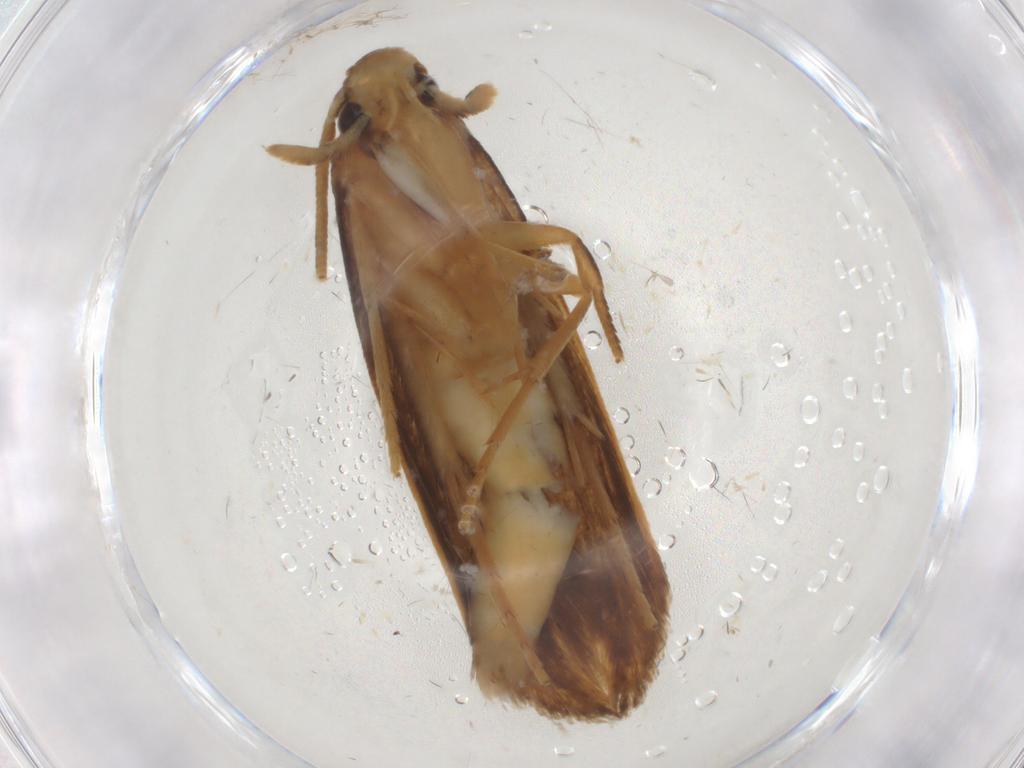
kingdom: Animalia
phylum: Arthropoda
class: Insecta
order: Lepidoptera
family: Tineidae
